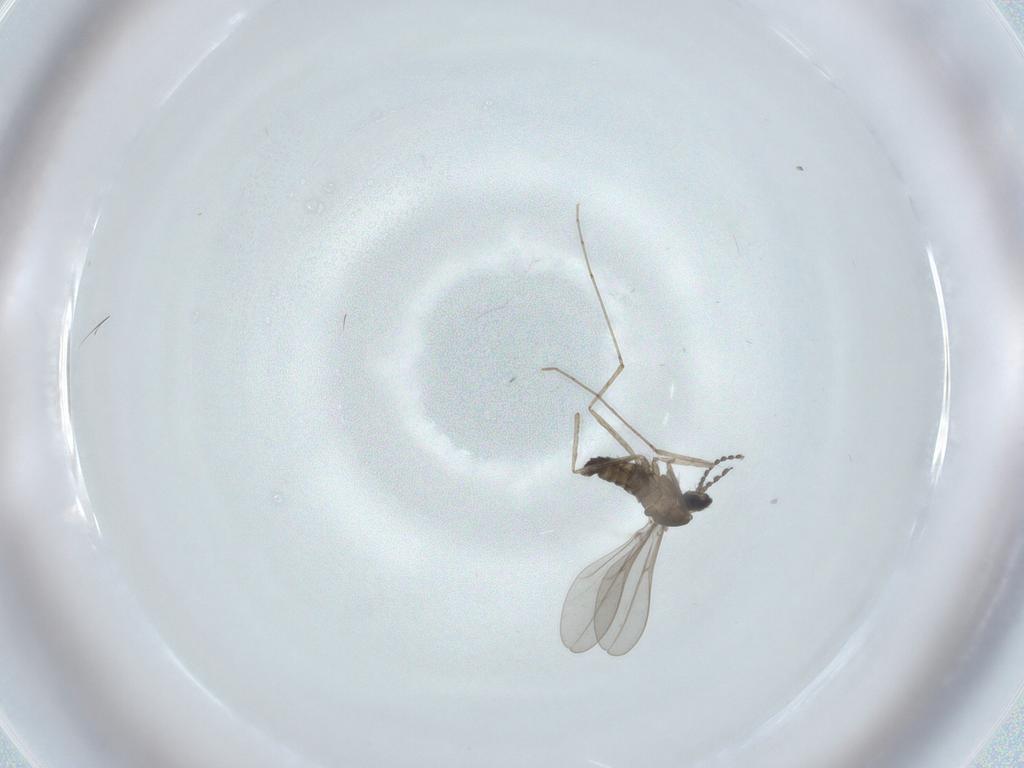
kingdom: Animalia
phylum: Arthropoda
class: Insecta
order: Diptera
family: Cecidomyiidae
